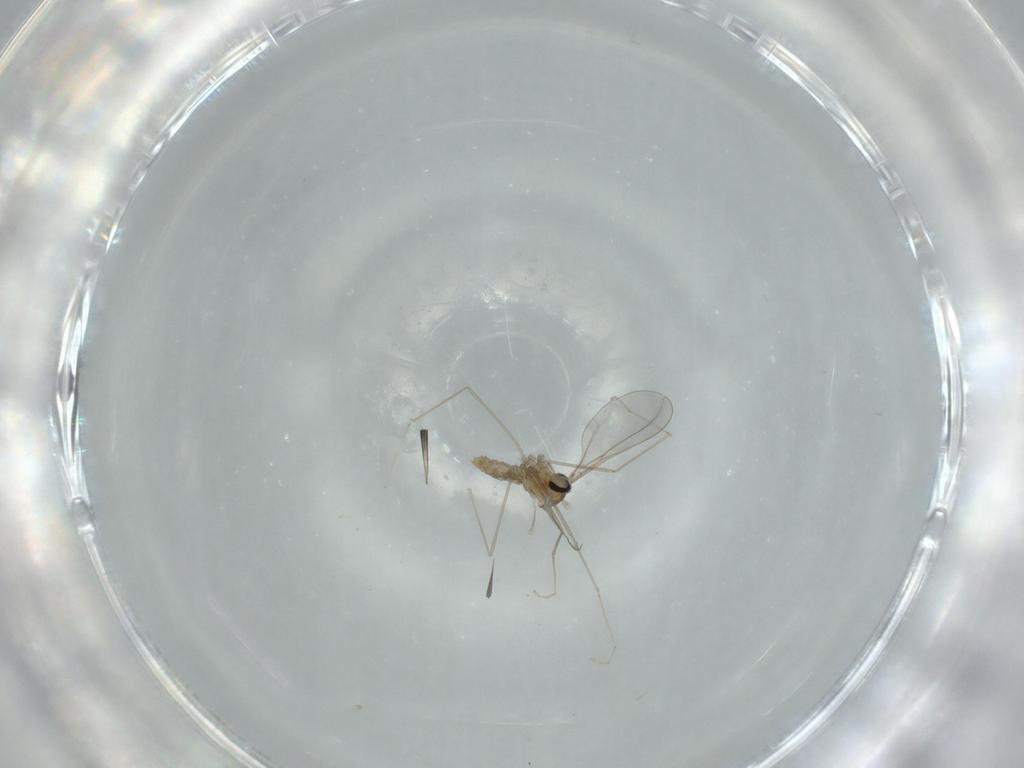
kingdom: Animalia
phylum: Arthropoda
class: Insecta
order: Diptera
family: Cecidomyiidae
